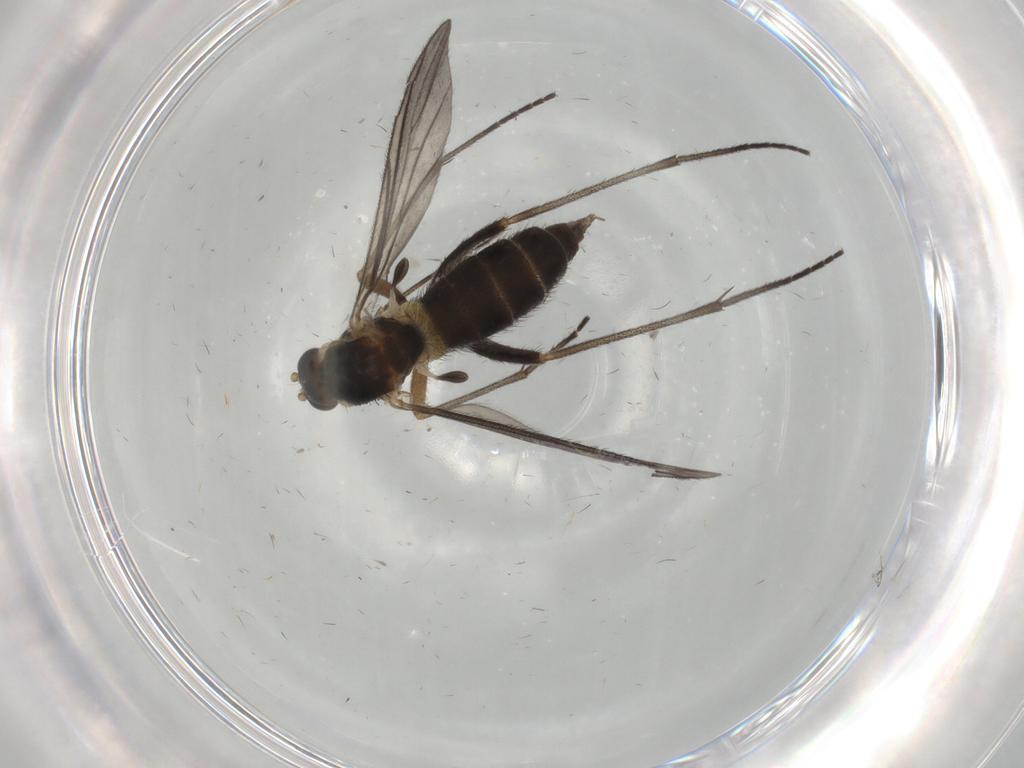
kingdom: Animalia
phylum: Arthropoda
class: Insecta
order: Diptera
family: Sciaridae
